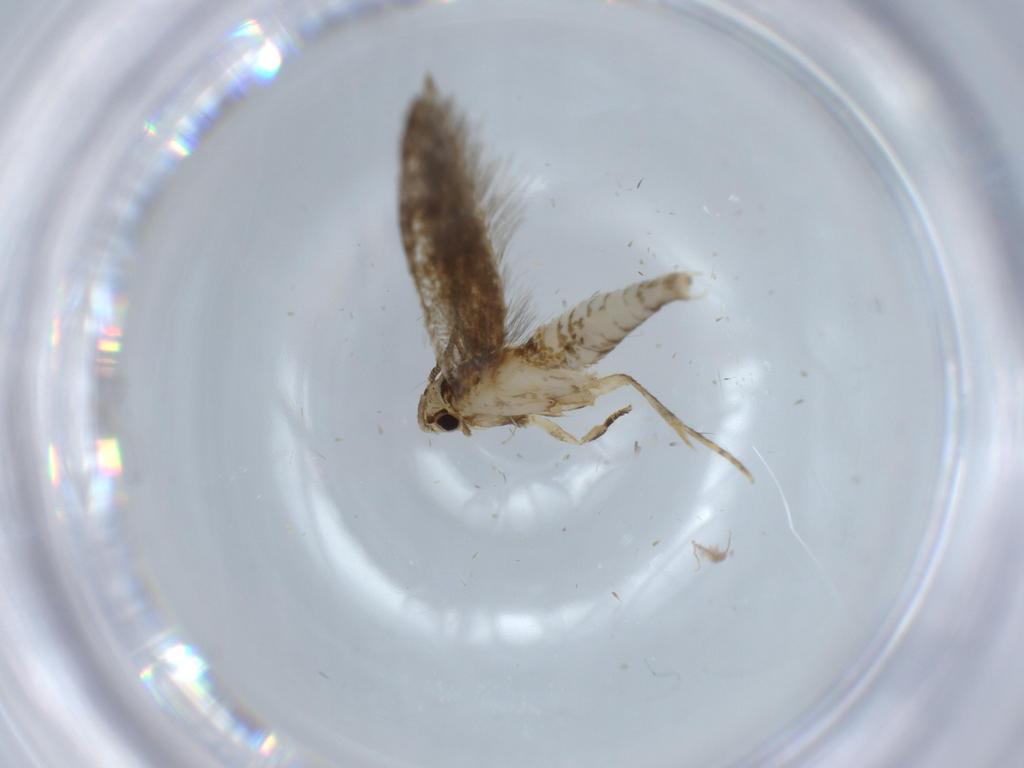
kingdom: Animalia
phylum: Arthropoda
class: Insecta
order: Lepidoptera
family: Tineidae
